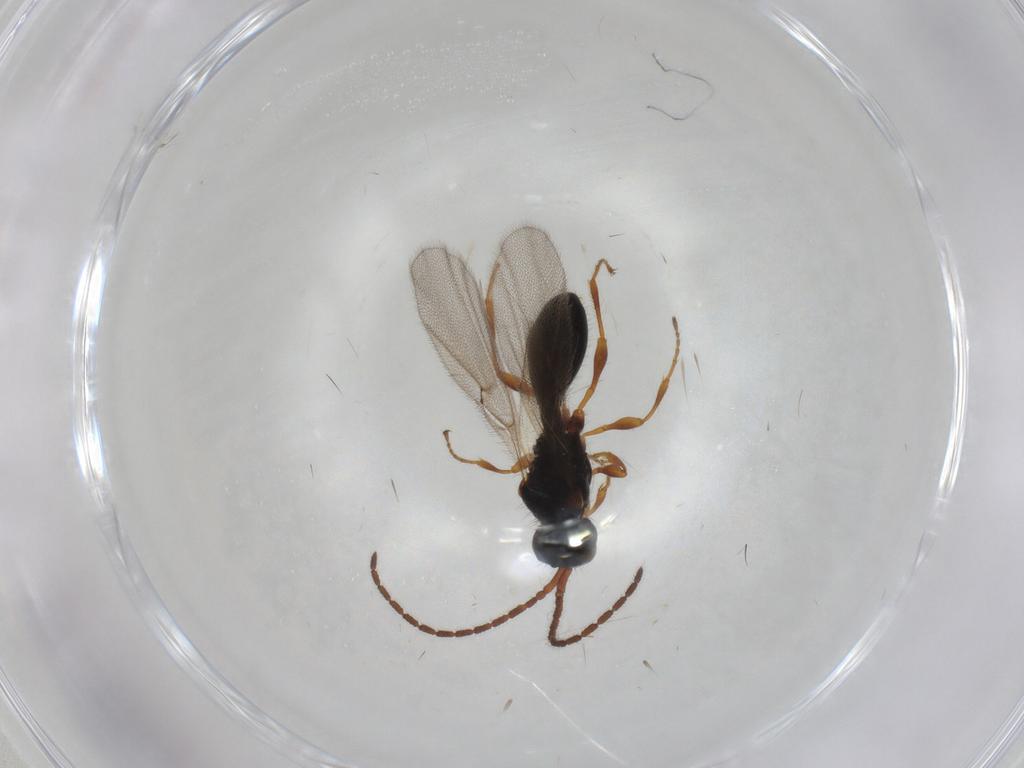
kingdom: Animalia
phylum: Arthropoda
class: Insecta
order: Hymenoptera
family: Diapriidae
